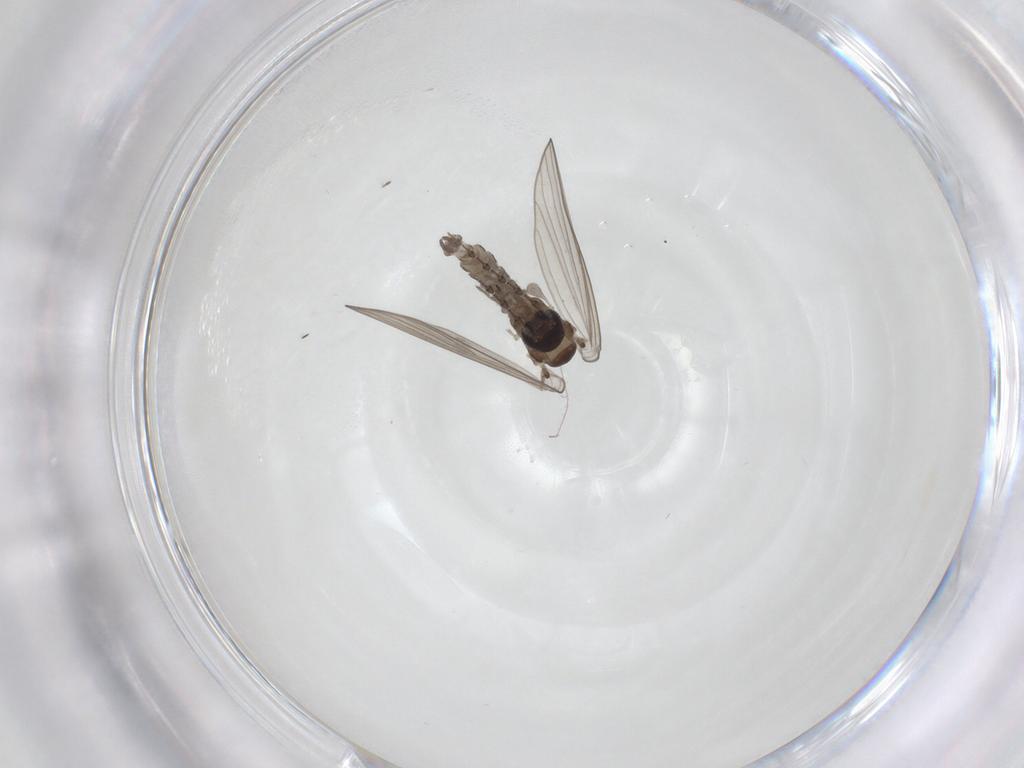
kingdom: Animalia
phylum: Arthropoda
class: Insecta
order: Diptera
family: Psychodidae
